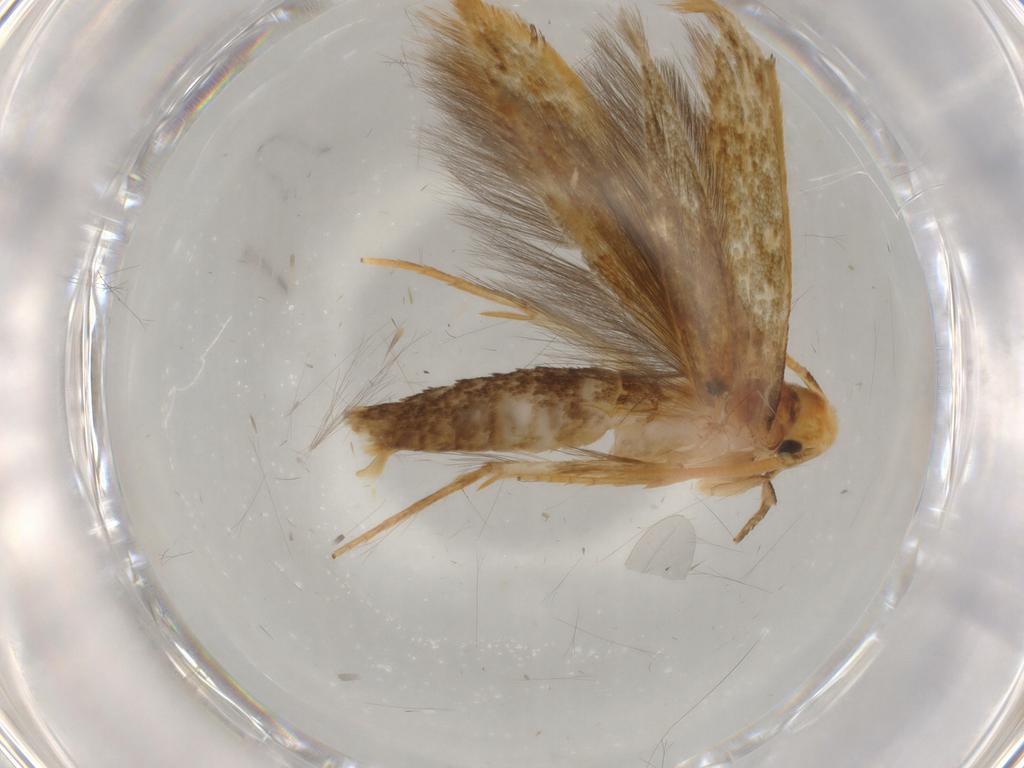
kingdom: Animalia
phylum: Arthropoda
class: Insecta
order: Lepidoptera
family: Tineidae
